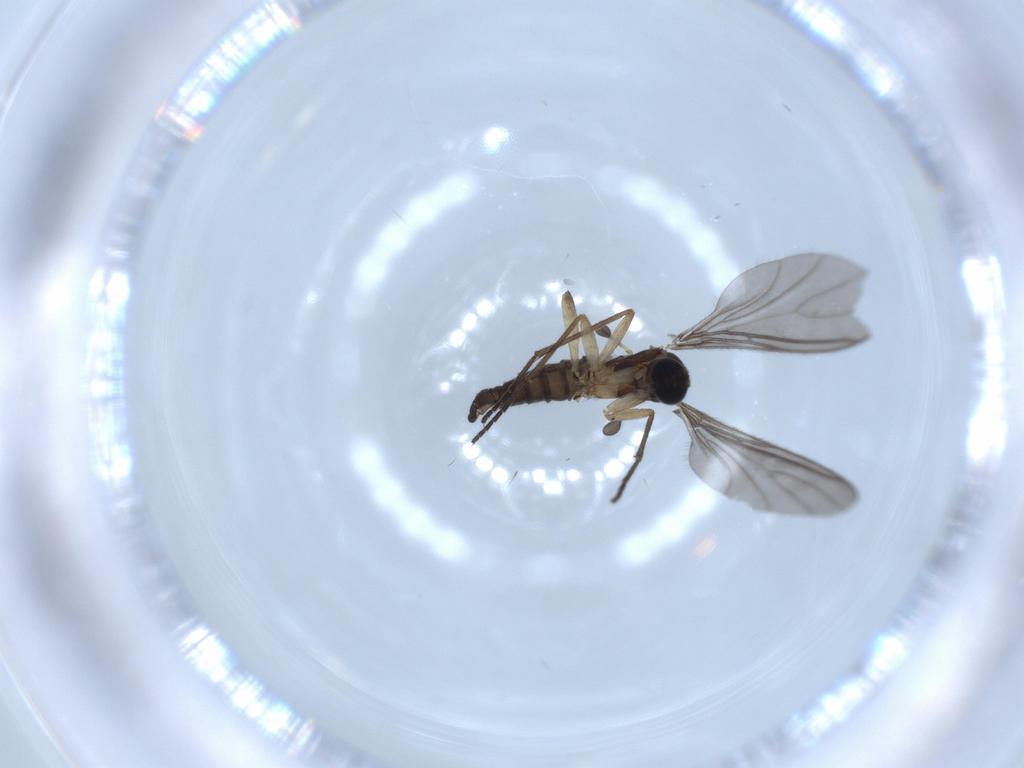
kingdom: Animalia
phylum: Arthropoda
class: Insecta
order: Diptera
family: Sciaridae
